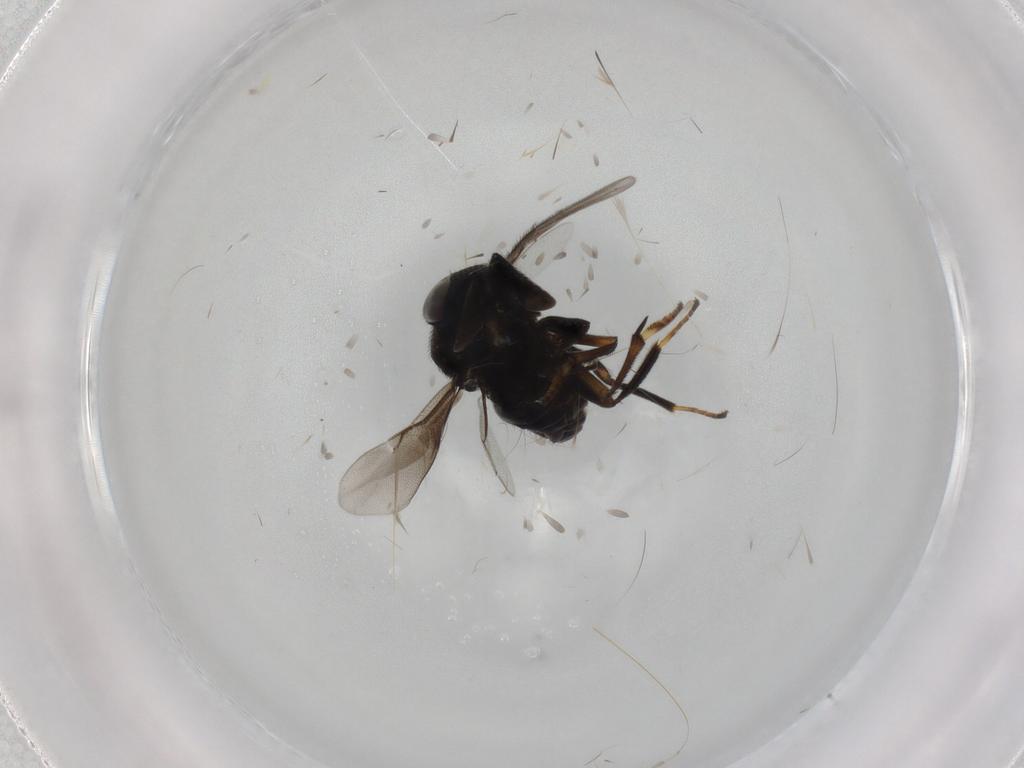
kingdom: Animalia
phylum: Arthropoda
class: Insecta
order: Hymenoptera
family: Encyrtidae
